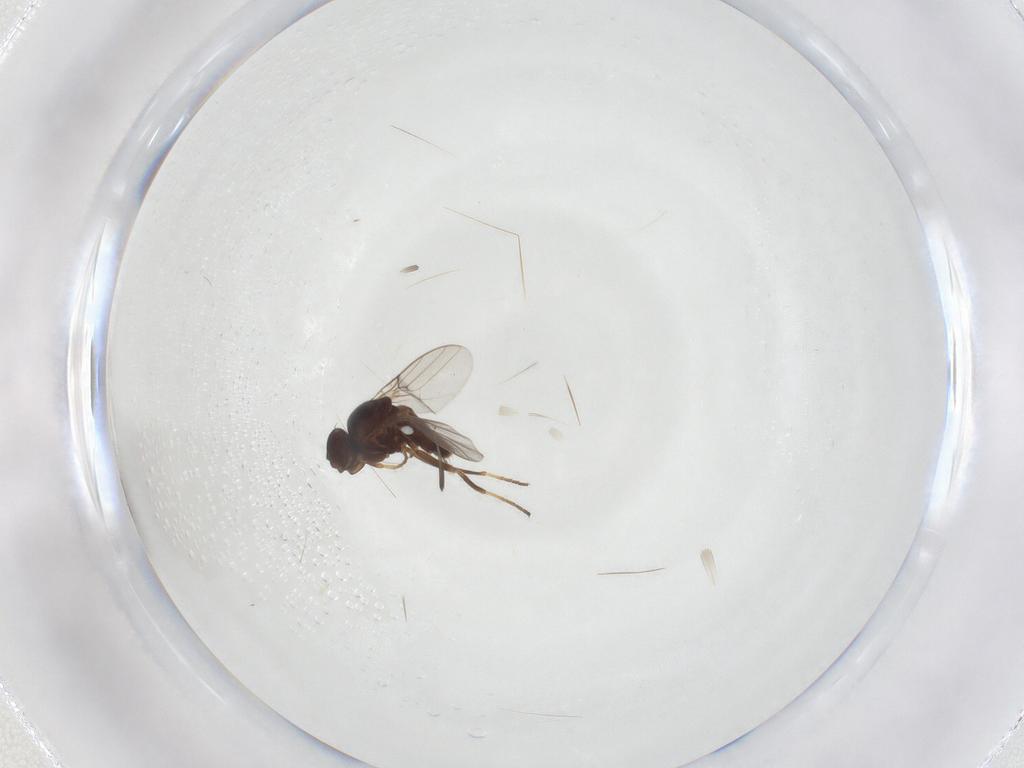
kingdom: Animalia
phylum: Arthropoda
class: Insecta
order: Diptera
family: Chloropidae
